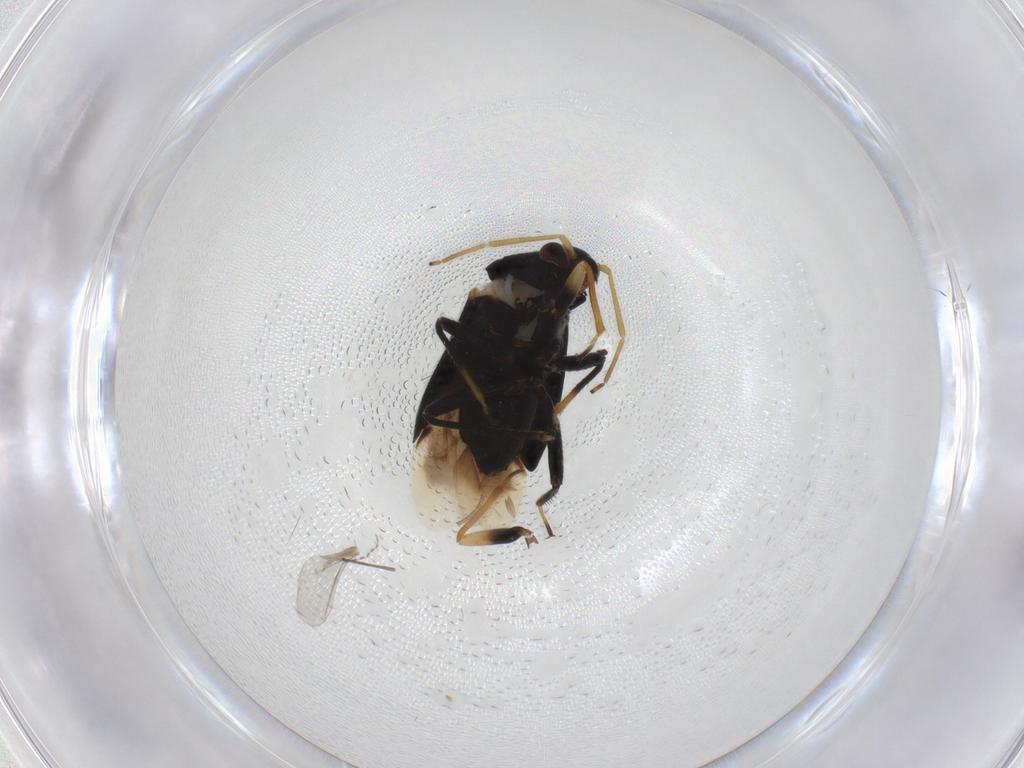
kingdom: Animalia
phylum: Arthropoda
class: Insecta
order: Hemiptera
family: Miridae
